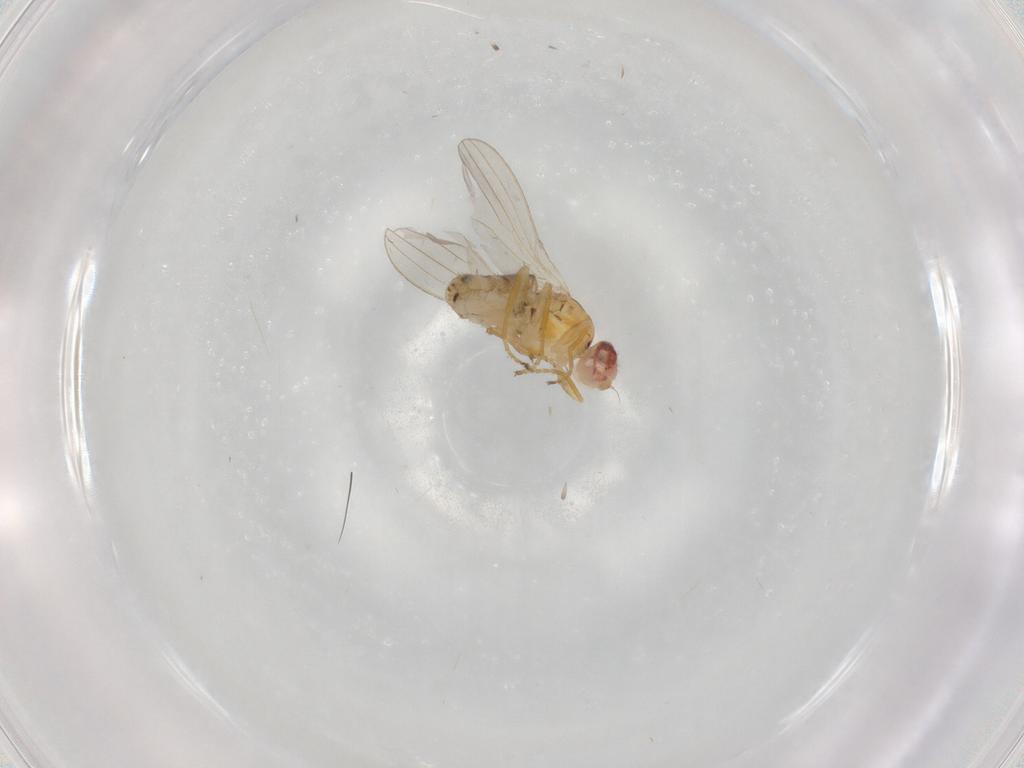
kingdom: Animalia
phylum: Arthropoda
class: Insecta
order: Diptera
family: Chyromyidae
